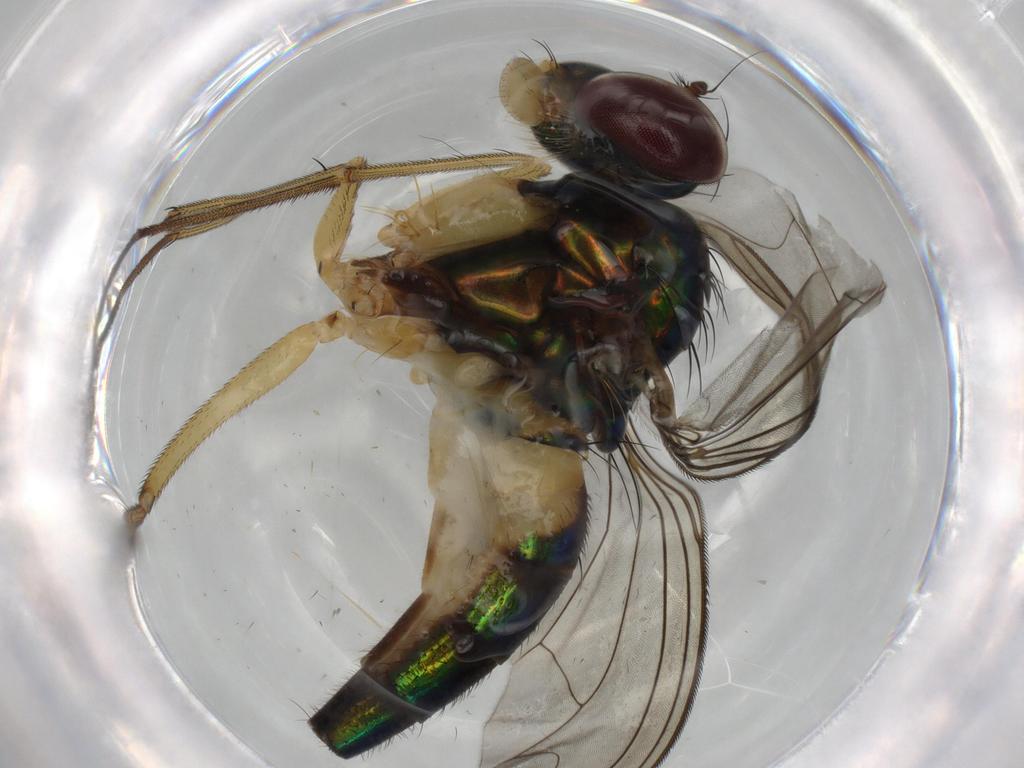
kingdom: Animalia
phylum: Arthropoda
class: Insecta
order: Diptera
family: Dolichopodidae
